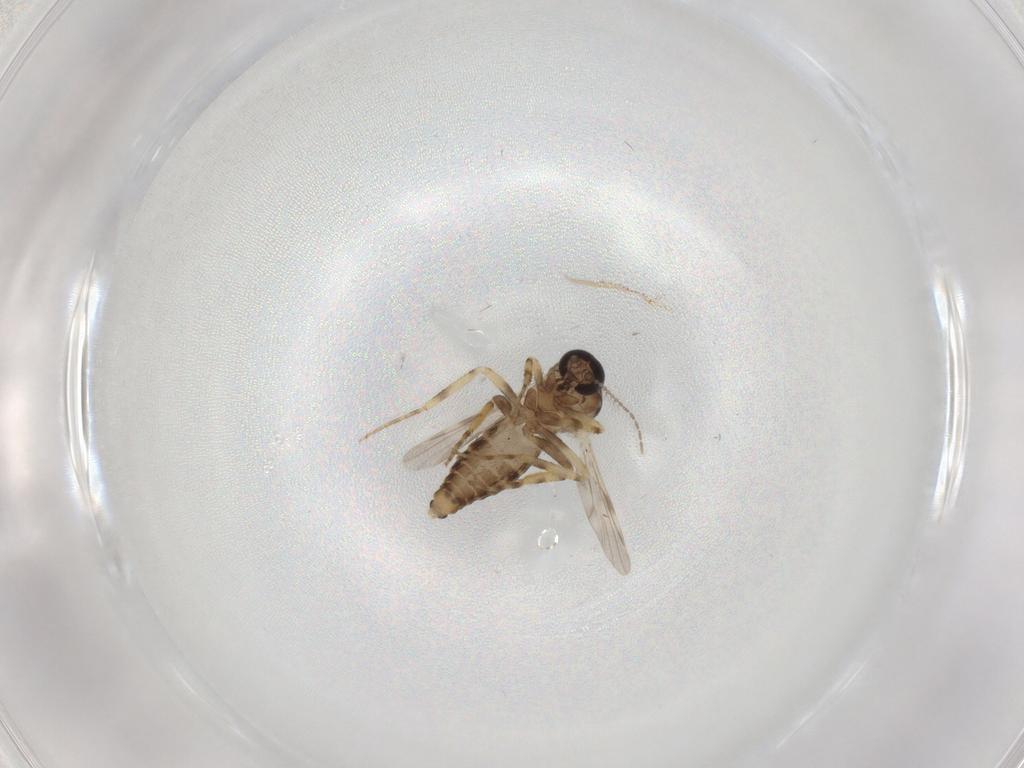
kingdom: Animalia
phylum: Arthropoda
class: Insecta
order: Diptera
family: Ceratopogonidae
